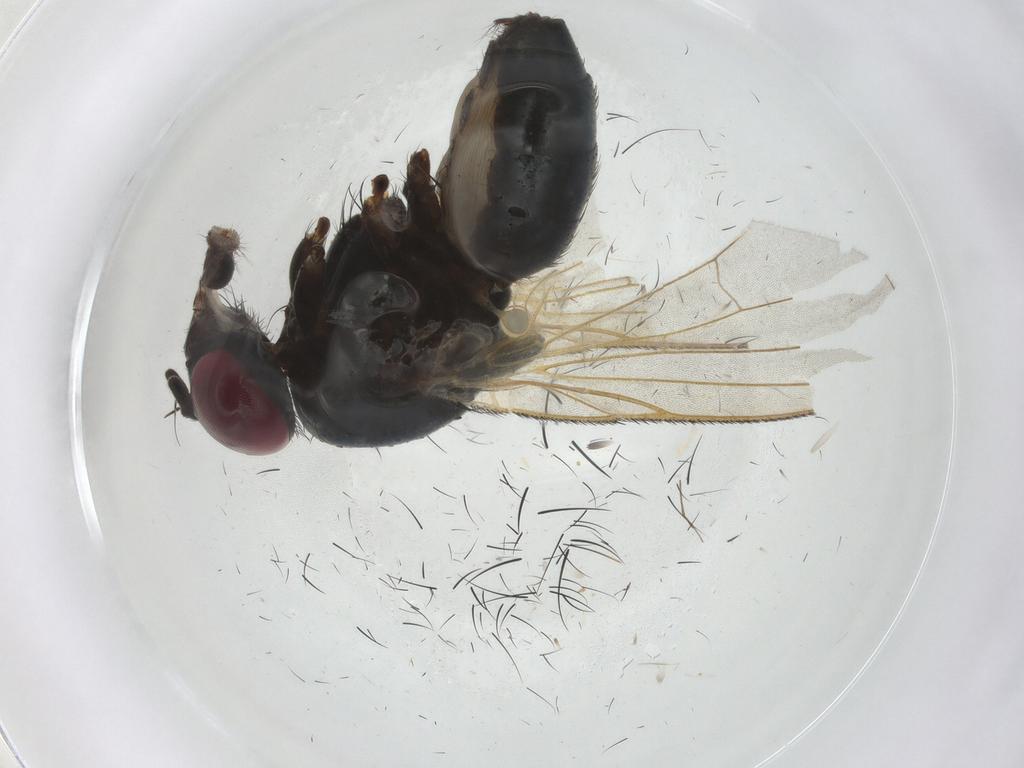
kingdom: Animalia
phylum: Arthropoda
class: Insecta
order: Diptera
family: Fannia
